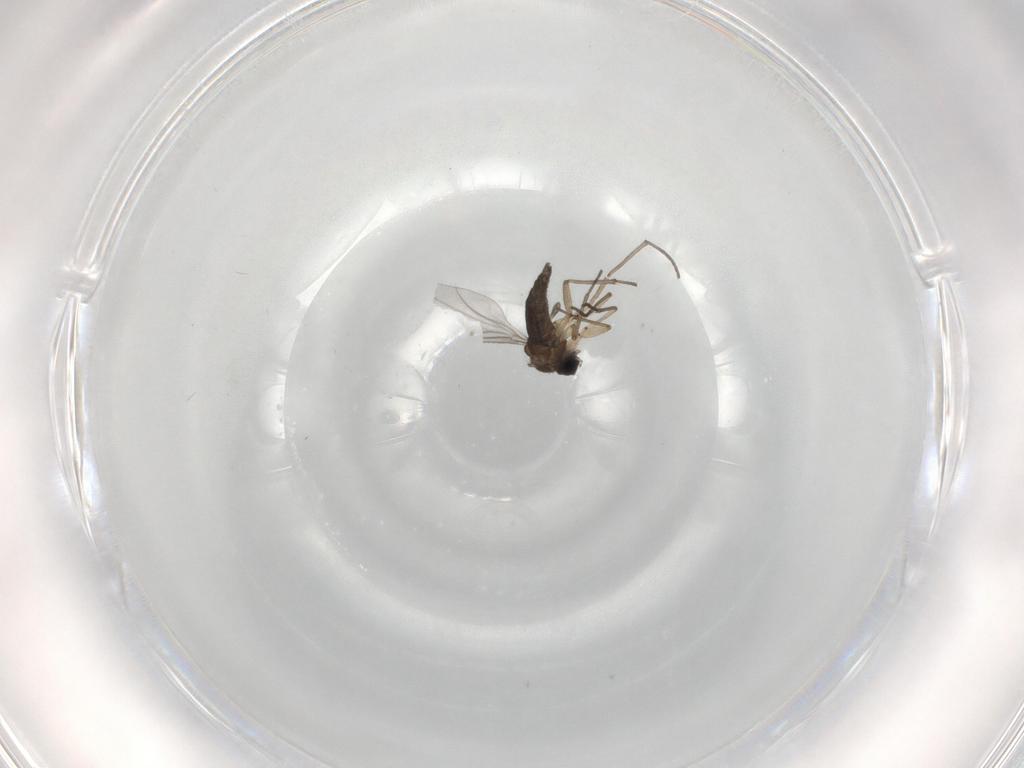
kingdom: Animalia
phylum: Arthropoda
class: Insecta
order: Diptera
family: Sciaridae
